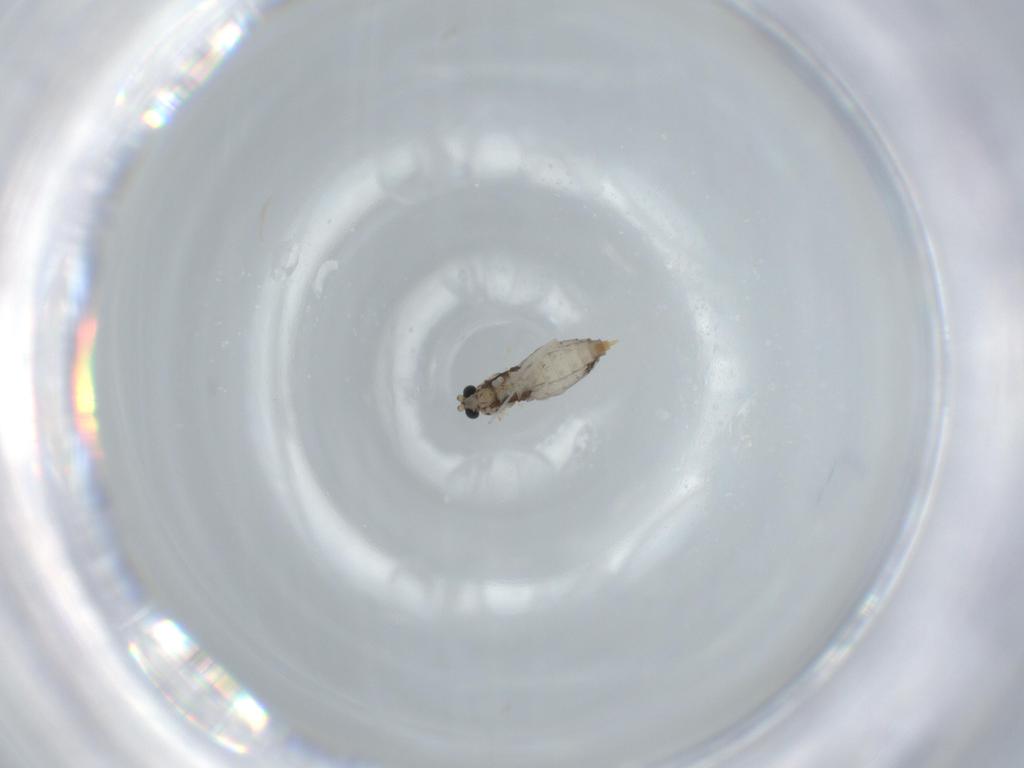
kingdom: Animalia
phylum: Arthropoda
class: Insecta
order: Diptera
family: Cecidomyiidae
